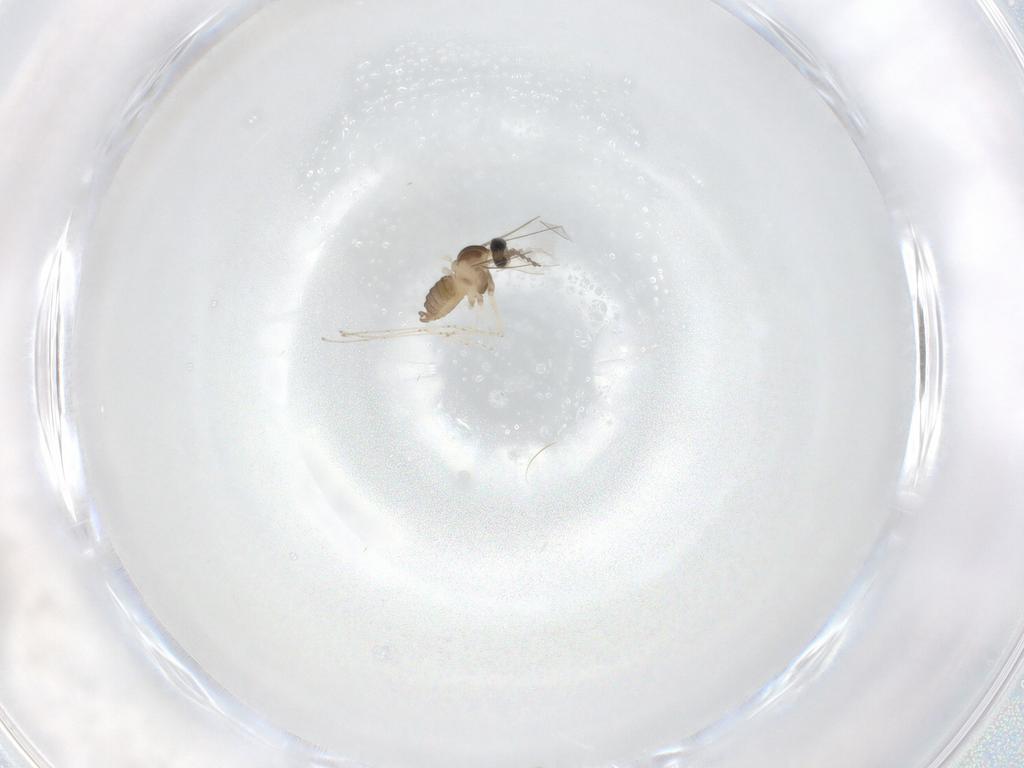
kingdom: Animalia
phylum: Arthropoda
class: Insecta
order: Diptera
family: Cecidomyiidae
